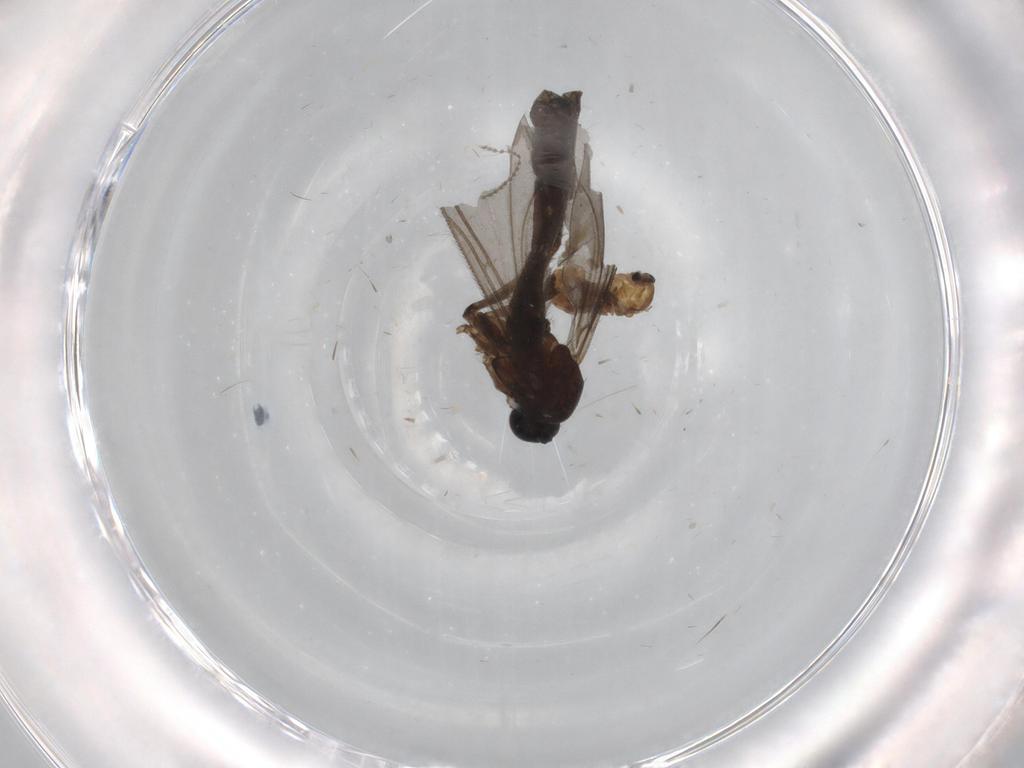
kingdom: Animalia
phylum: Arthropoda
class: Insecta
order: Diptera
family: Cecidomyiidae
